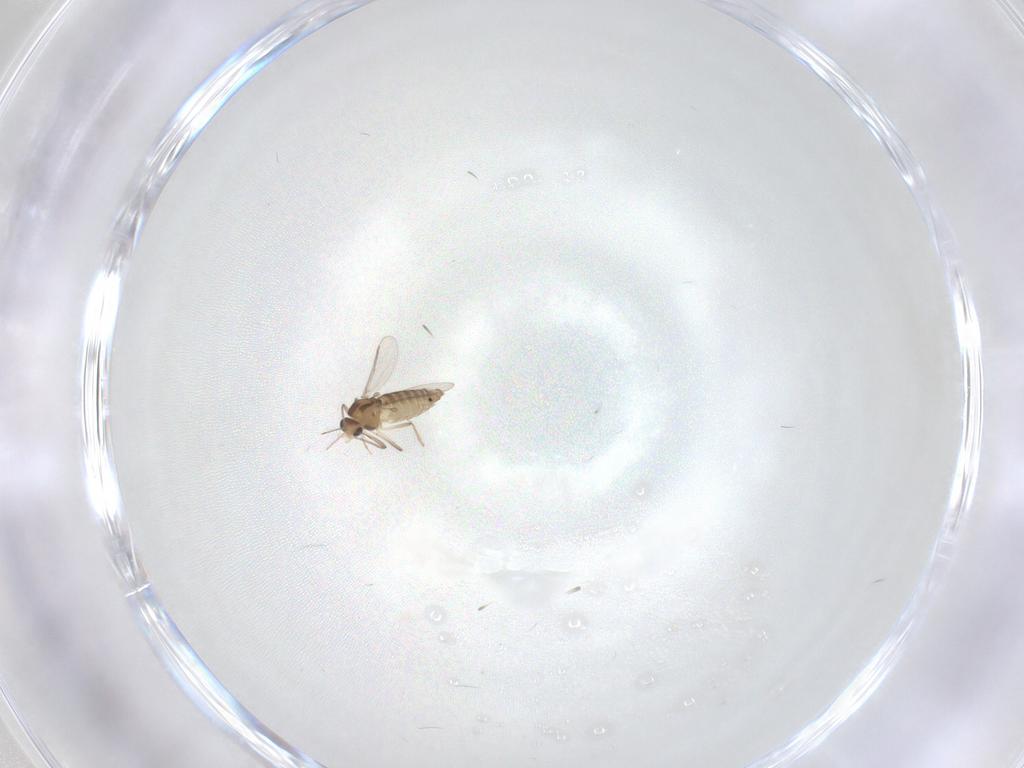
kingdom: Animalia
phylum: Arthropoda
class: Insecta
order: Diptera
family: Chironomidae
